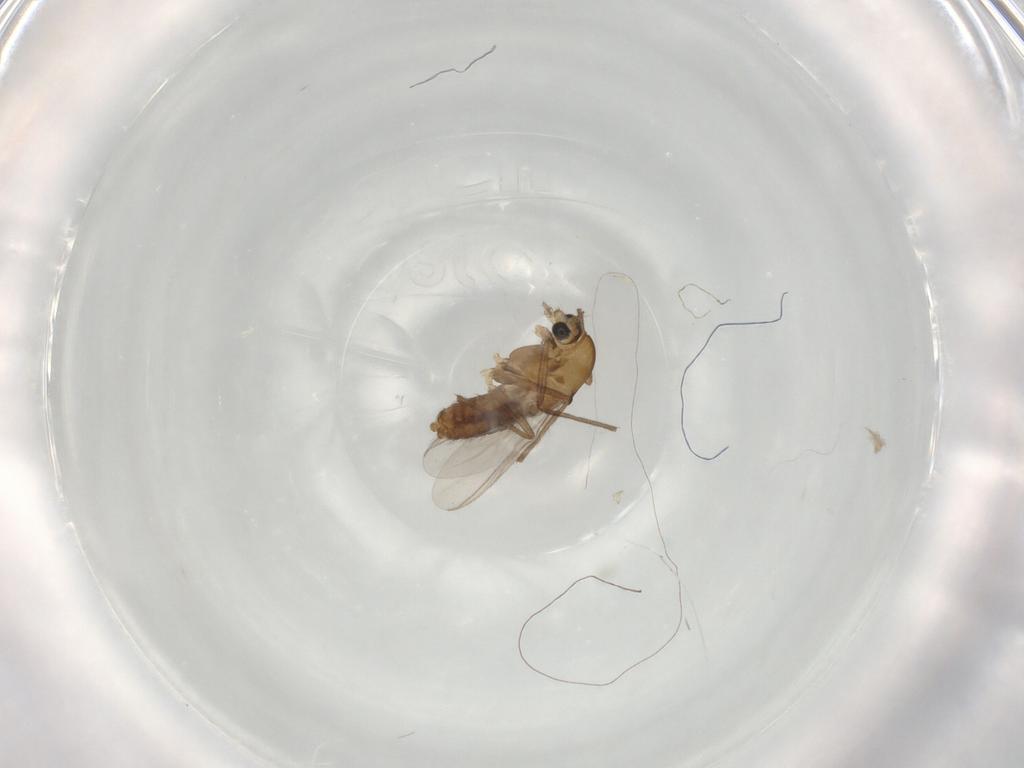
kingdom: Animalia
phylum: Arthropoda
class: Insecta
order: Diptera
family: Chironomidae
